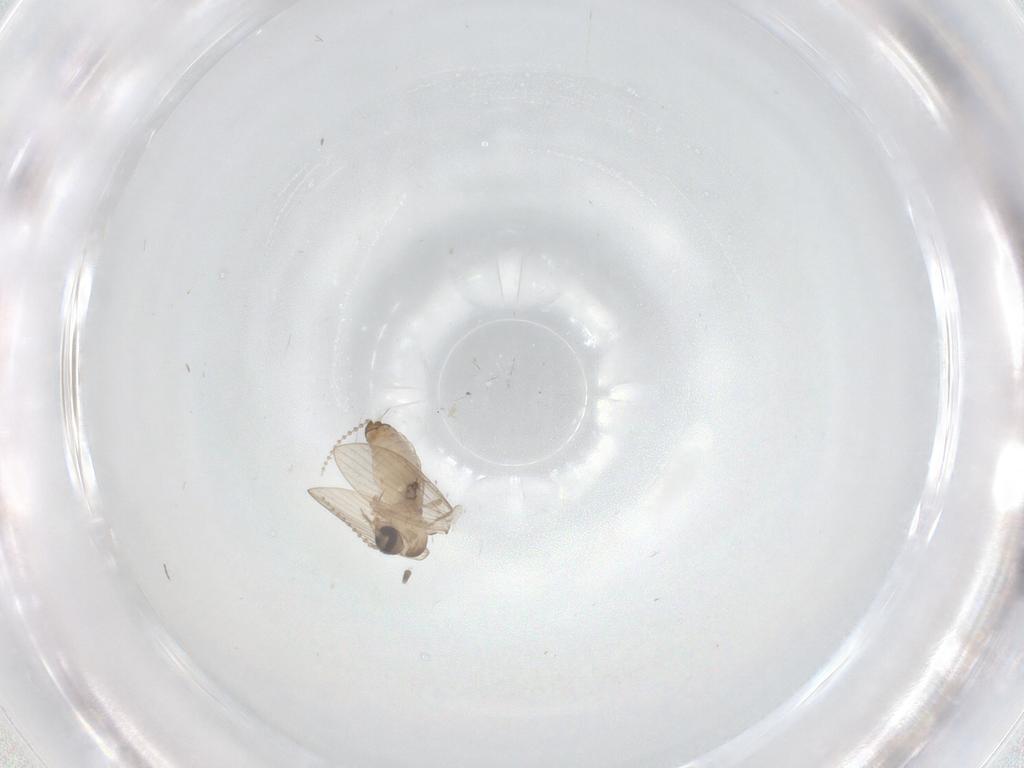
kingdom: Animalia
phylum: Arthropoda
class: Insecta
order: Diptera
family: Psychodidae
